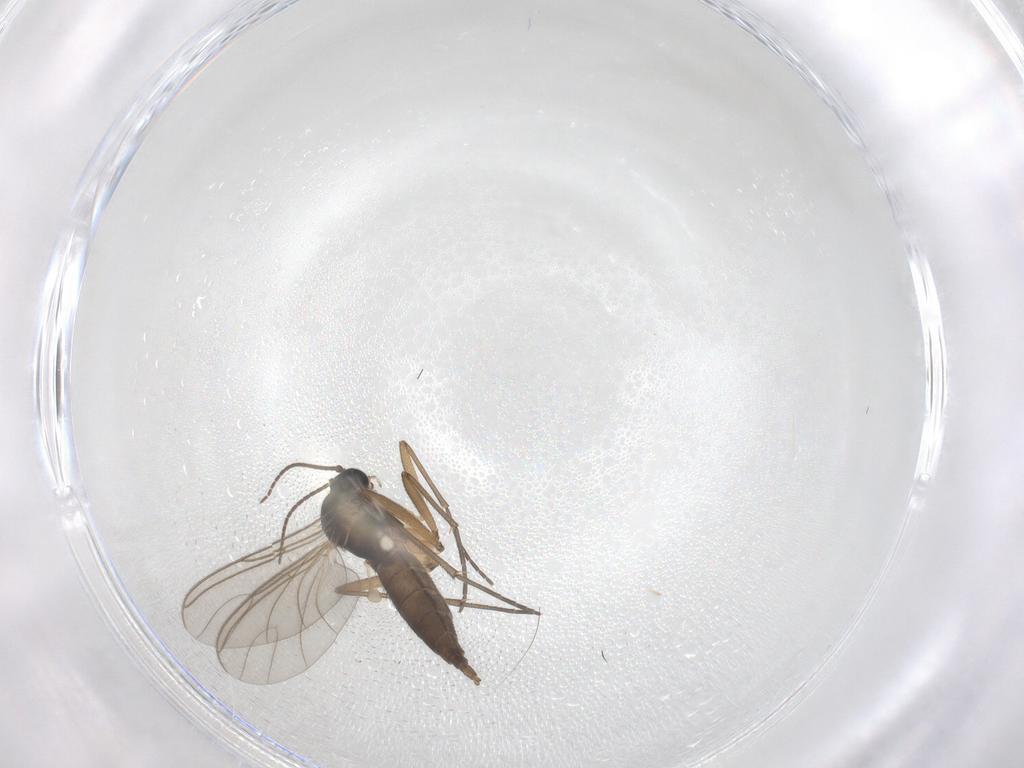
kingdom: Animalia
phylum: Arthropoda
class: Insecta
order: Diptera
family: Sciaridae
